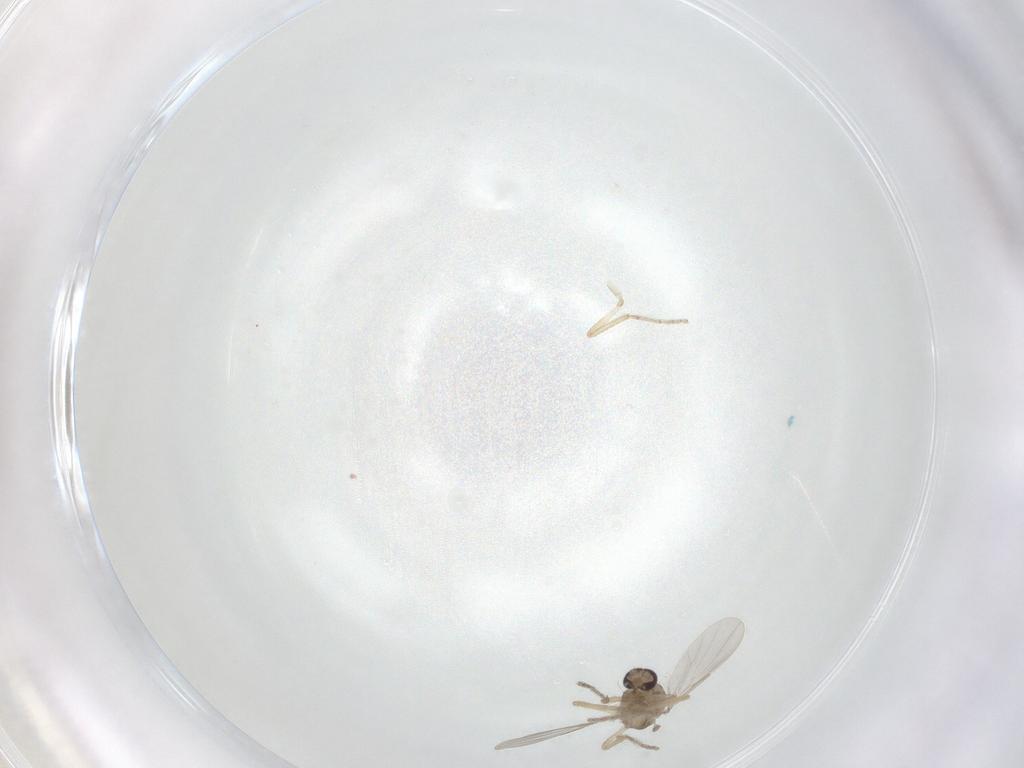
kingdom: Animalia
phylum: Arthropoda
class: Insecta
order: Diptera
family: Ceratopogonidae
